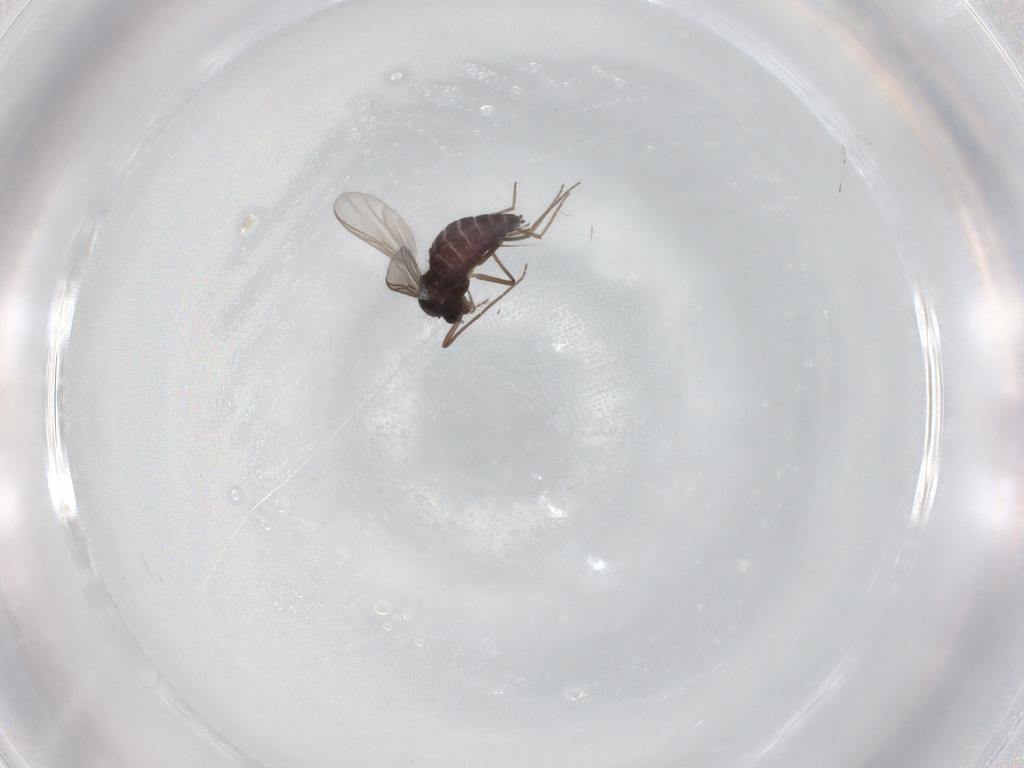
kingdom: Animalia
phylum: Arthropoda
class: Insecta
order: Diptera
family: Chironomidae
